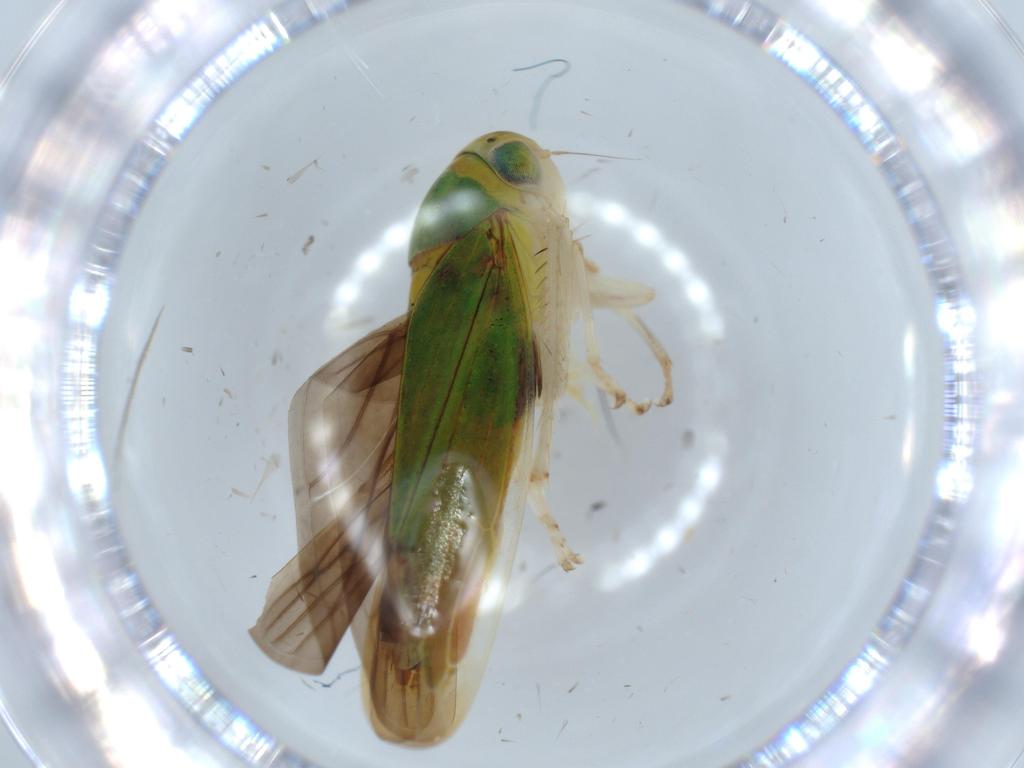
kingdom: Animalia
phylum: Arthropoda
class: Insecta
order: Hemiptera
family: Cicadellidae
